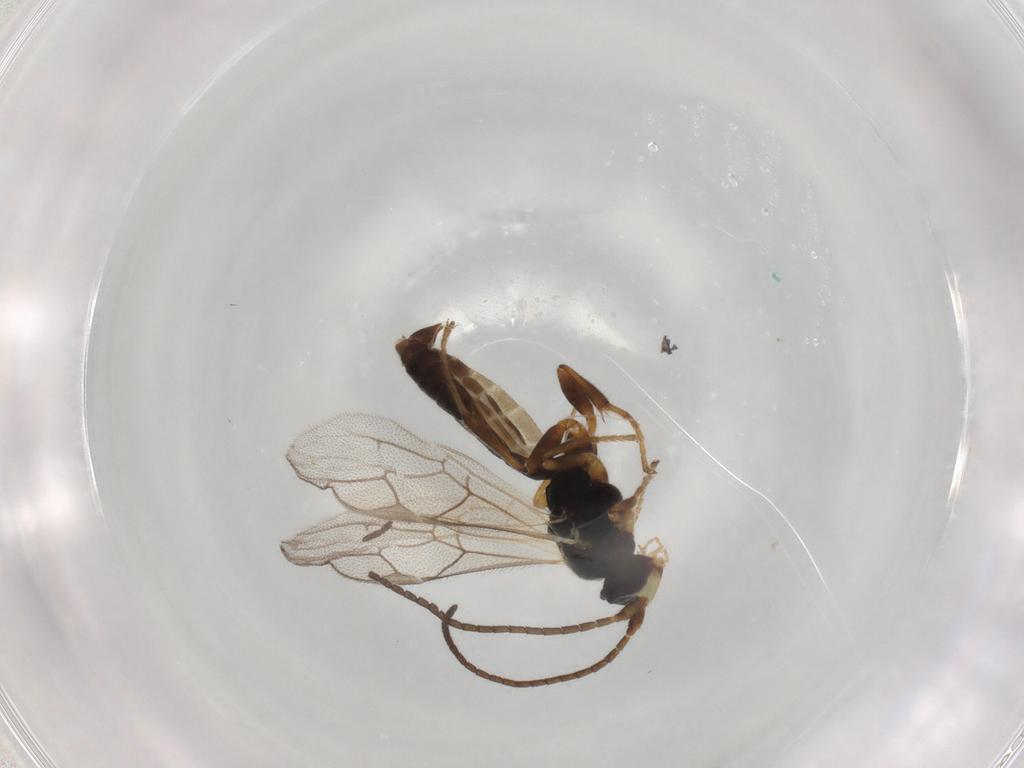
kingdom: Animalia
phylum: Arthropoda
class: Insecta
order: Hymenoptera
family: Ichneumonidae
